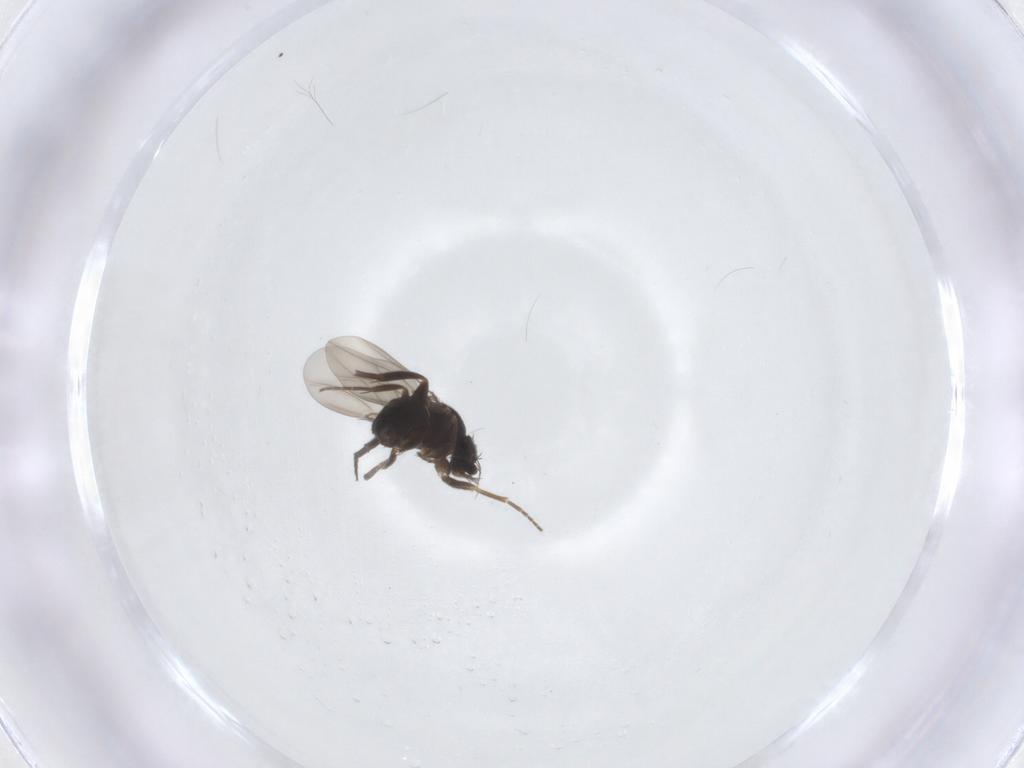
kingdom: Animalia
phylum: Arthropoda
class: Insecta
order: Diptera
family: Phoridae
